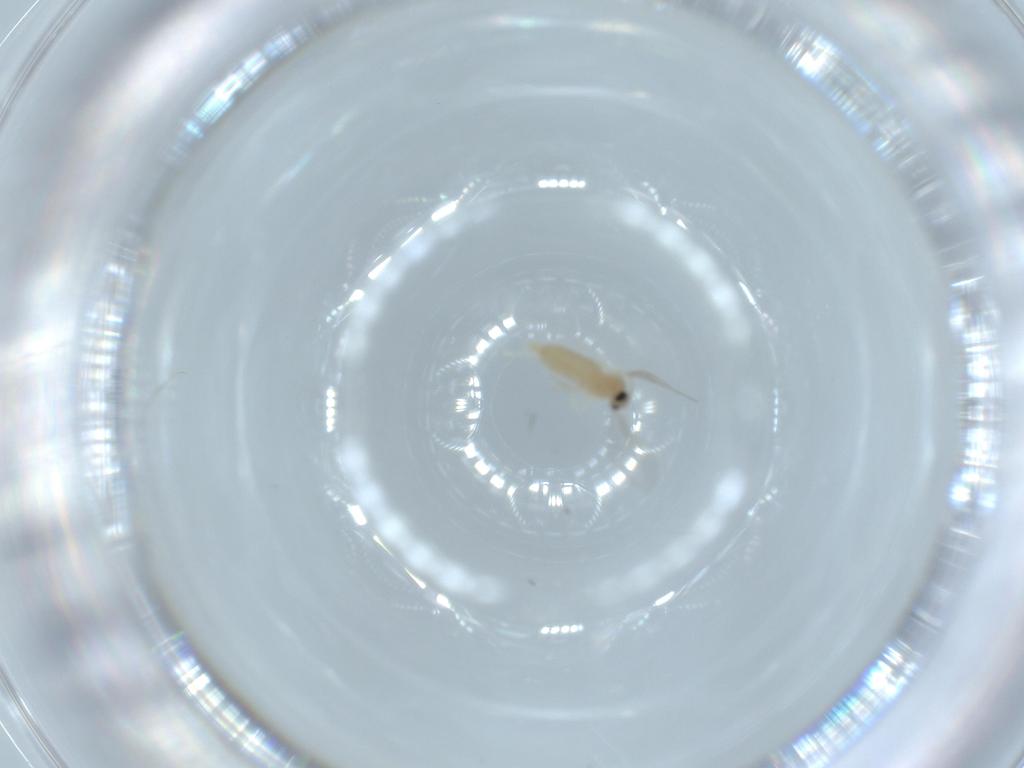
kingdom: Animalia
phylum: Arthropoda
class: Insecta
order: Diptera
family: Cecidomyiidae
